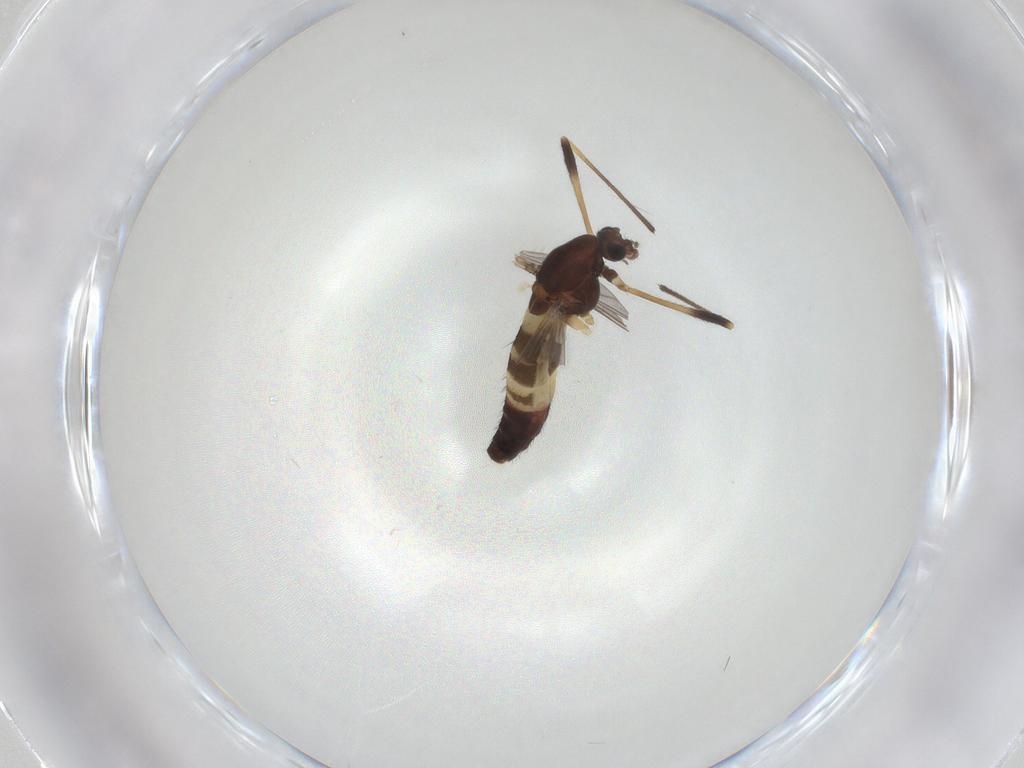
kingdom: Animalia
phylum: Arthropoda
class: Insecta
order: Diptera
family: Chironomidae
